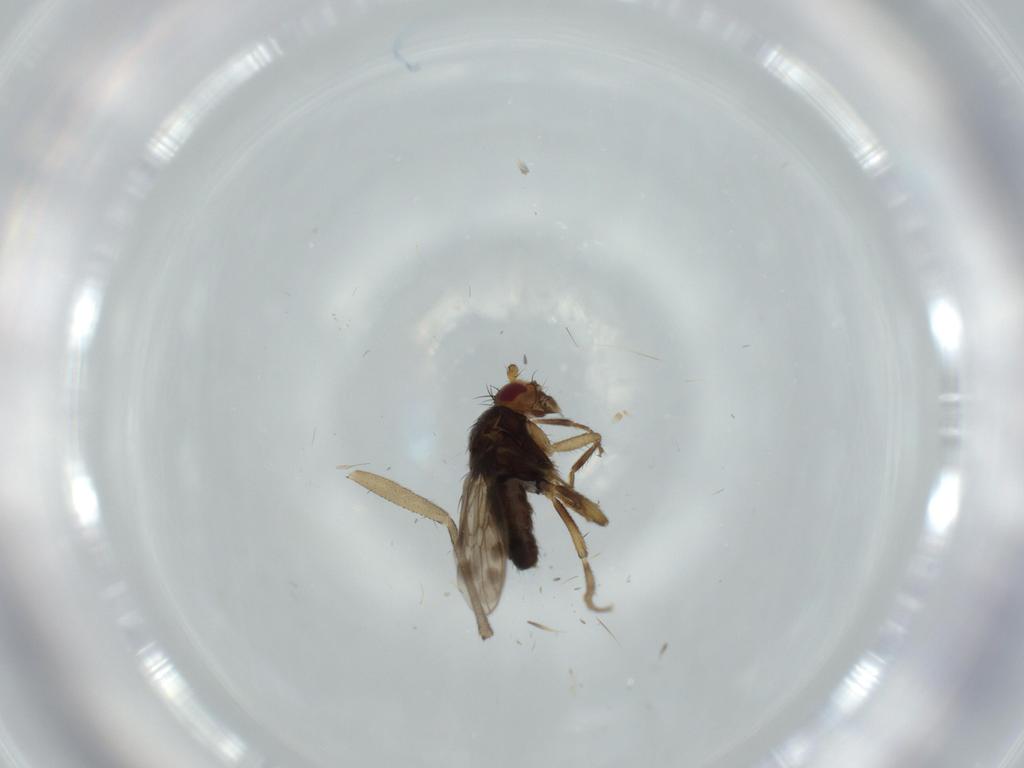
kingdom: Animalia
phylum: Arthropoda
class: Insecta
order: Diptera
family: Sphaeroceridae
